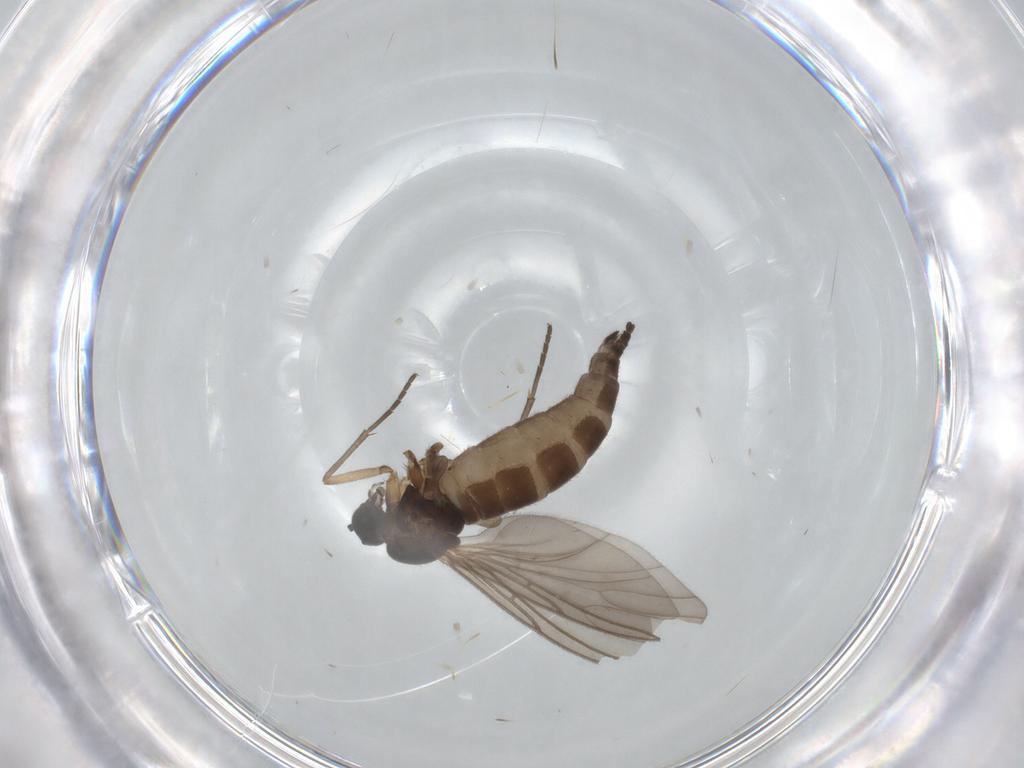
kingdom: Animalia
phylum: Arthropoda
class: Insecta
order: Diptera
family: Sciaridae
